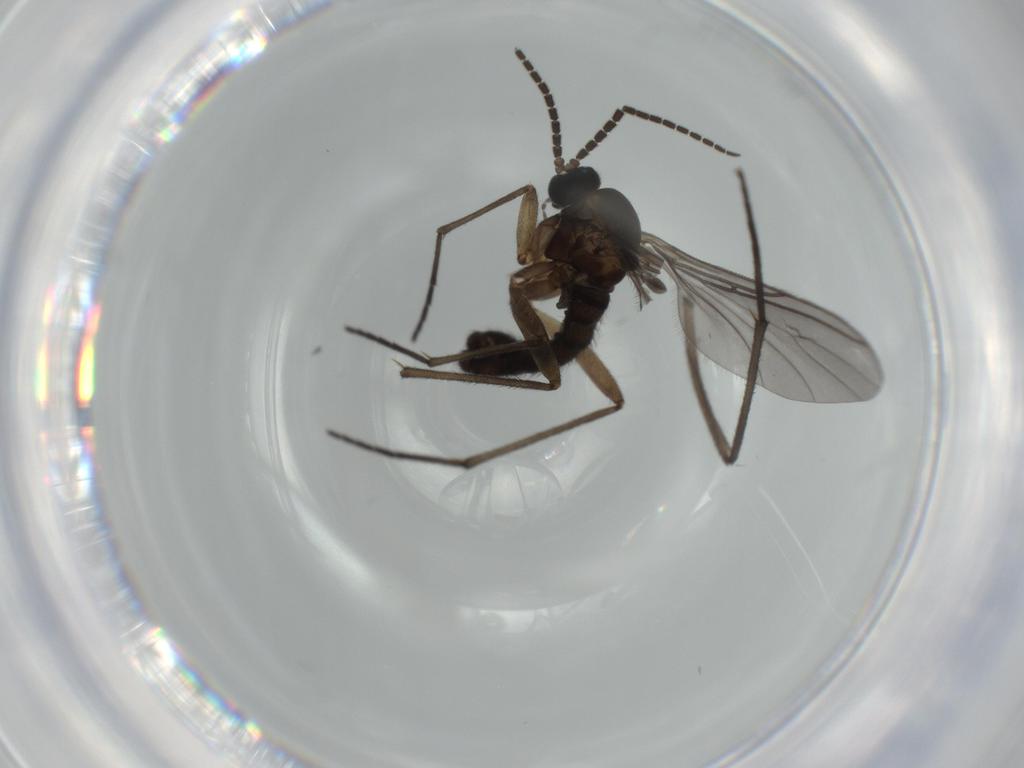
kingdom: Animalia
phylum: Arthropoda
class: Insecta
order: Diptera
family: Sciaridae
